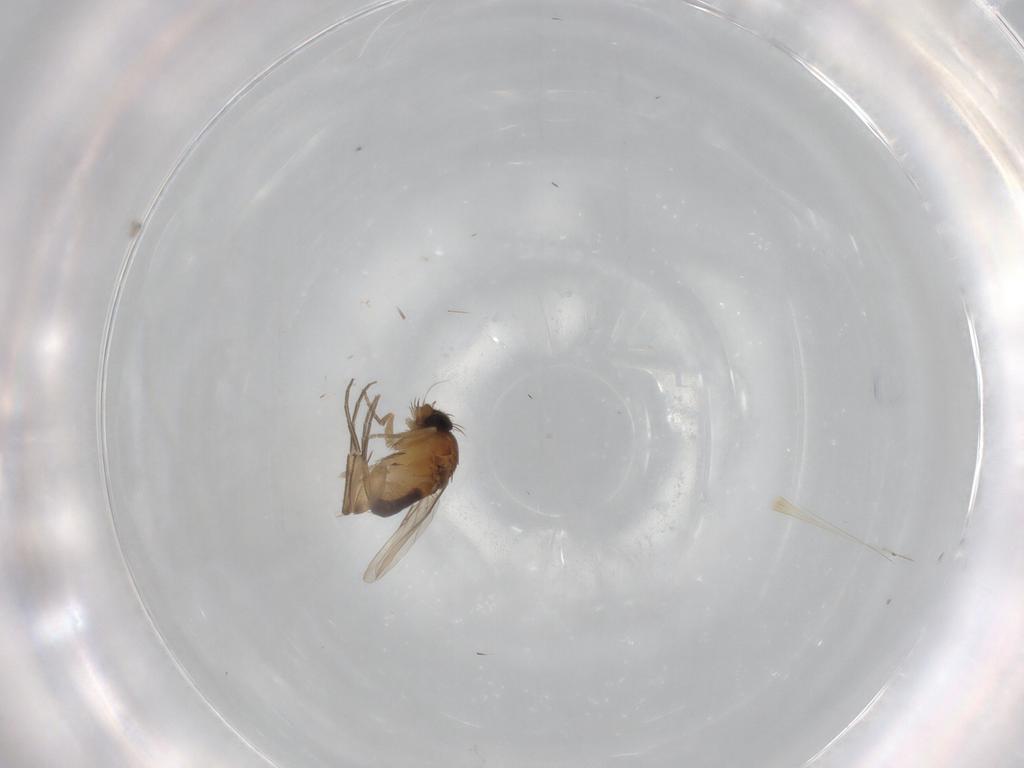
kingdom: Animalia
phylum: Arthropoda
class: Insecta
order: Diptera
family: Phoridae
